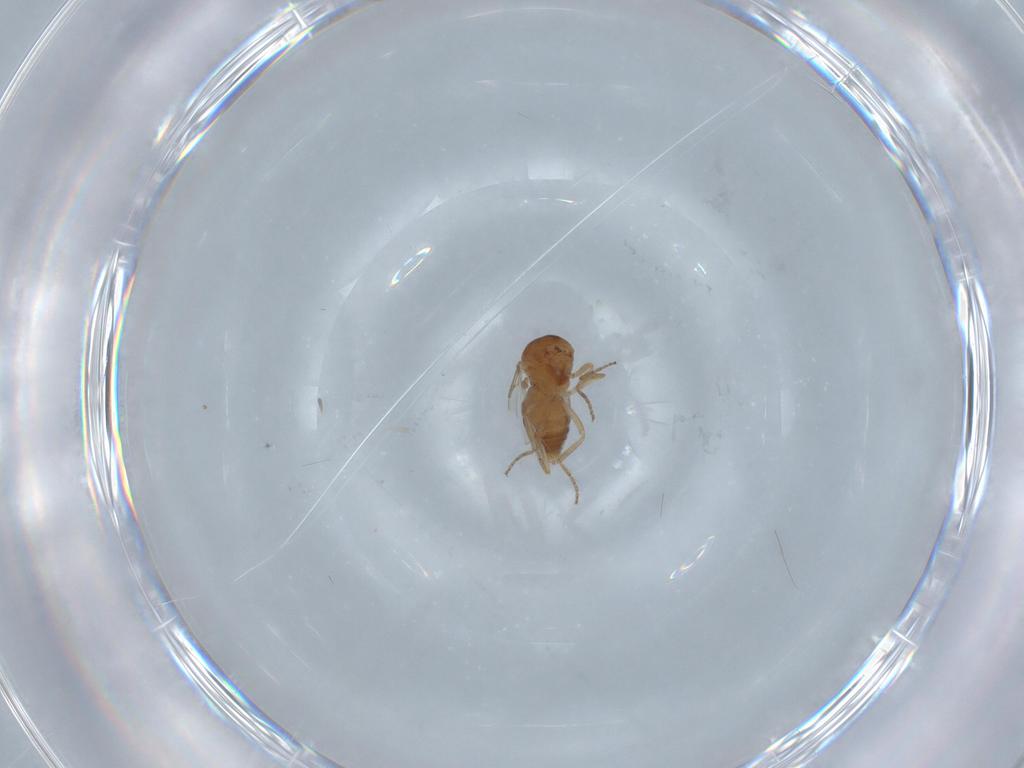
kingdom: Animalia
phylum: Arthropoda
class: Insecta
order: Diptera
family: Ceratopogonidae
